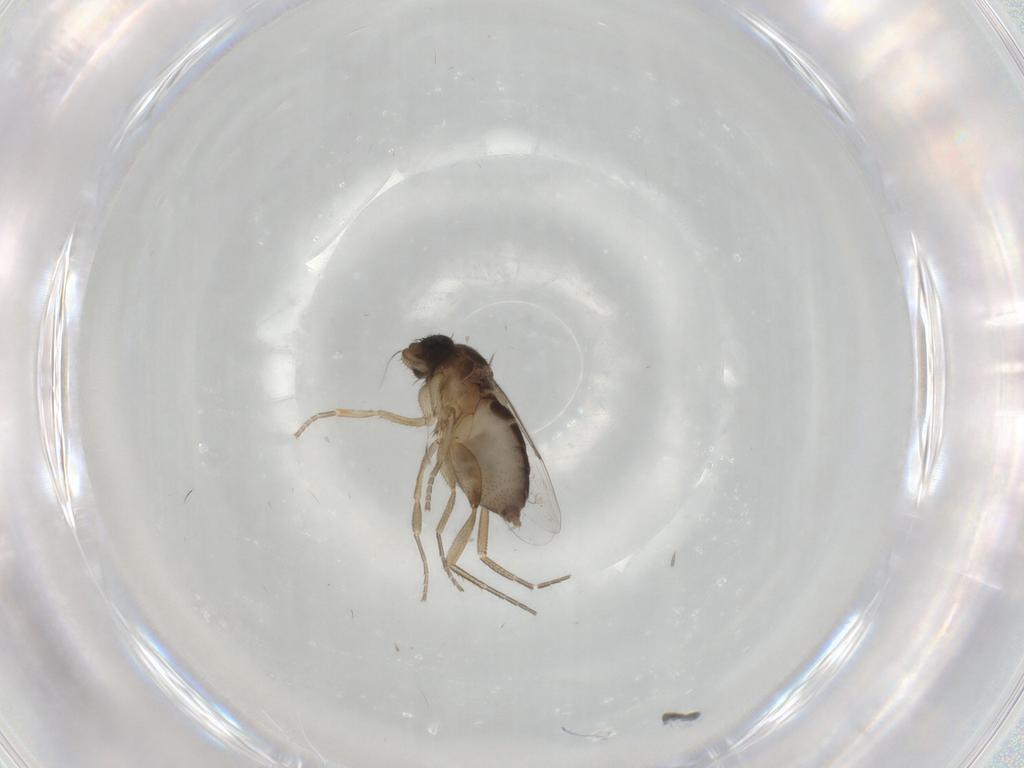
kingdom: Animalia
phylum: Arthropoda
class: Insecta
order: Diptera
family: Phoridae
